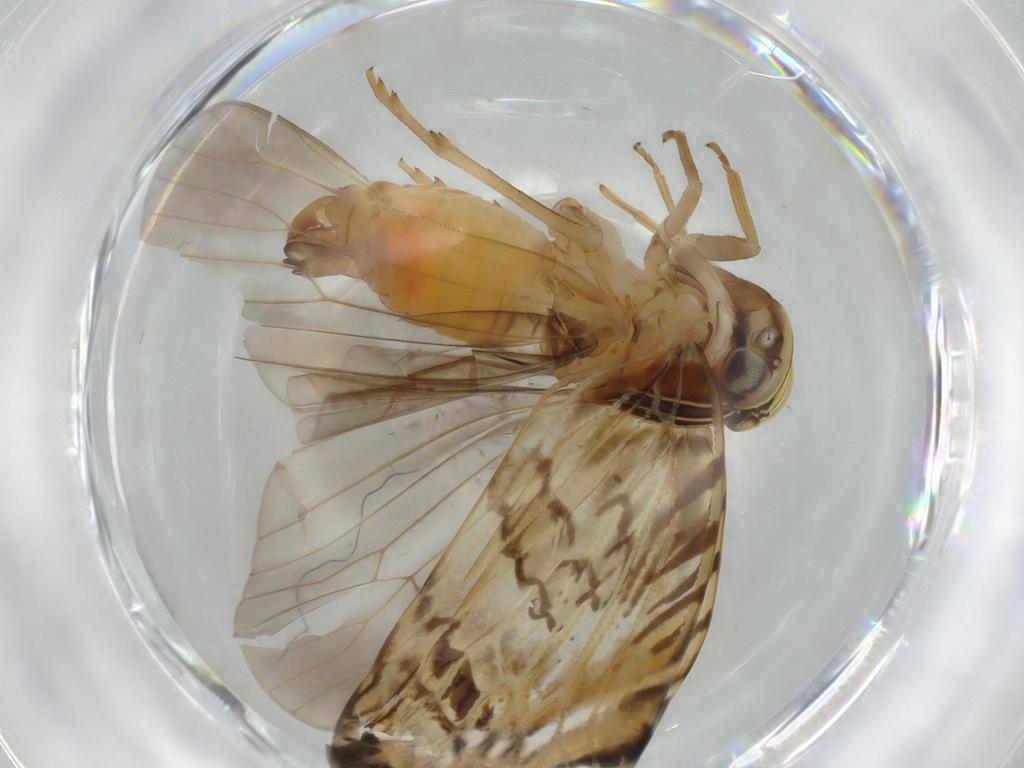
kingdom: Animalia
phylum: Arthropoda
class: Insecta
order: Hemiptera
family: Cixiidae
